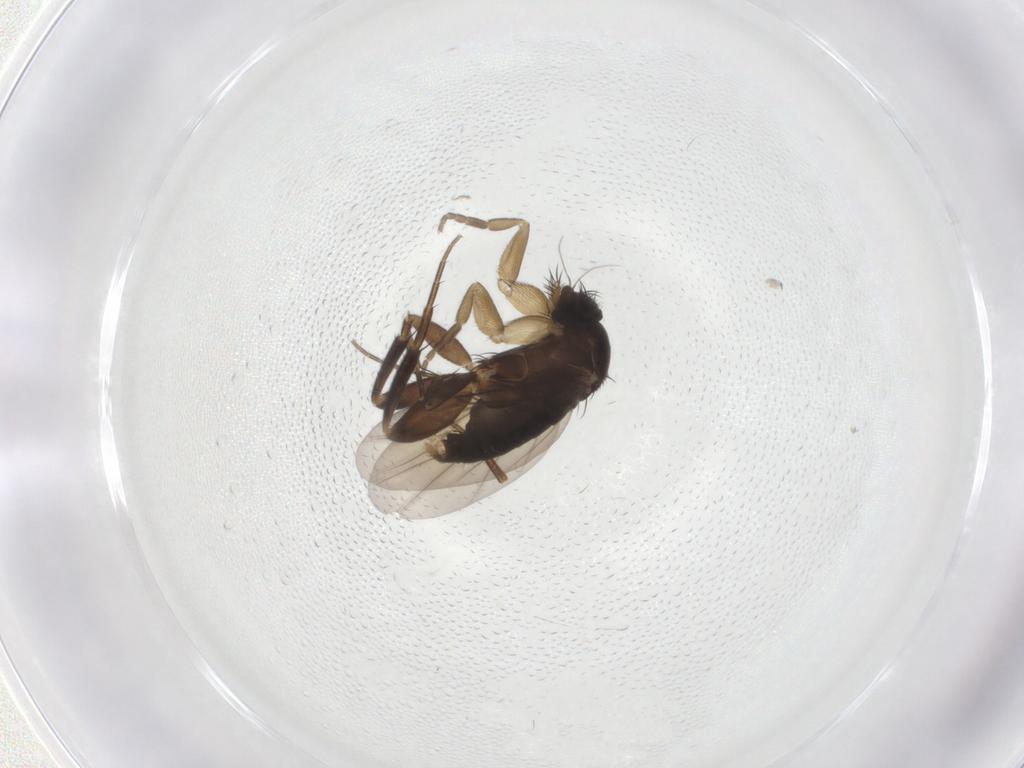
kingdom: Animalia
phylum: Arthropoda
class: Insecta
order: Diptera
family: Phoridae
